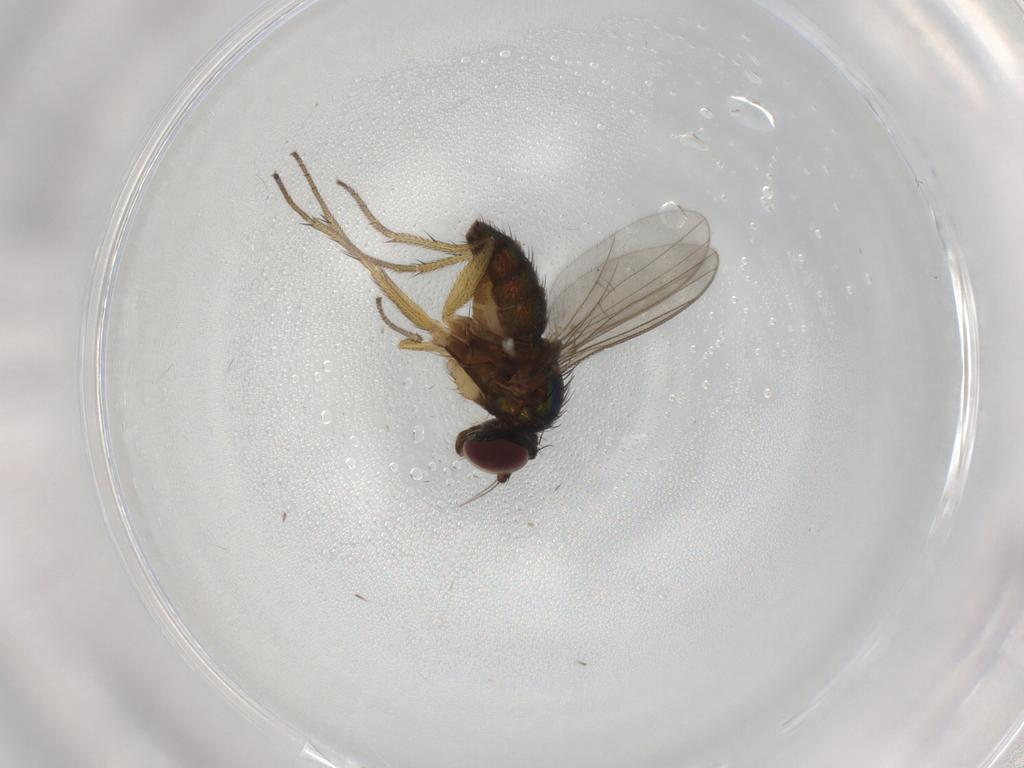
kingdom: Animalia
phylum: Arthropoda
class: Insecta
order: Diptera
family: Dolichopodidae
